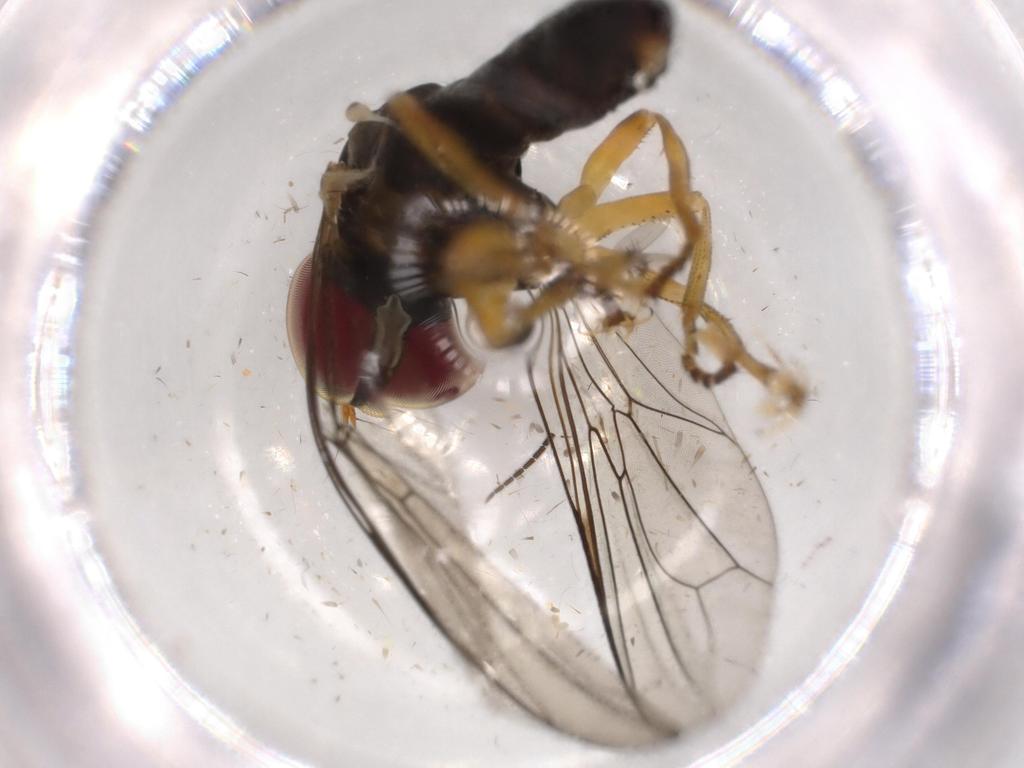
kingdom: Animalia
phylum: Arthropoda
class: Insecta
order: Diptera
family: Pipunculidae
